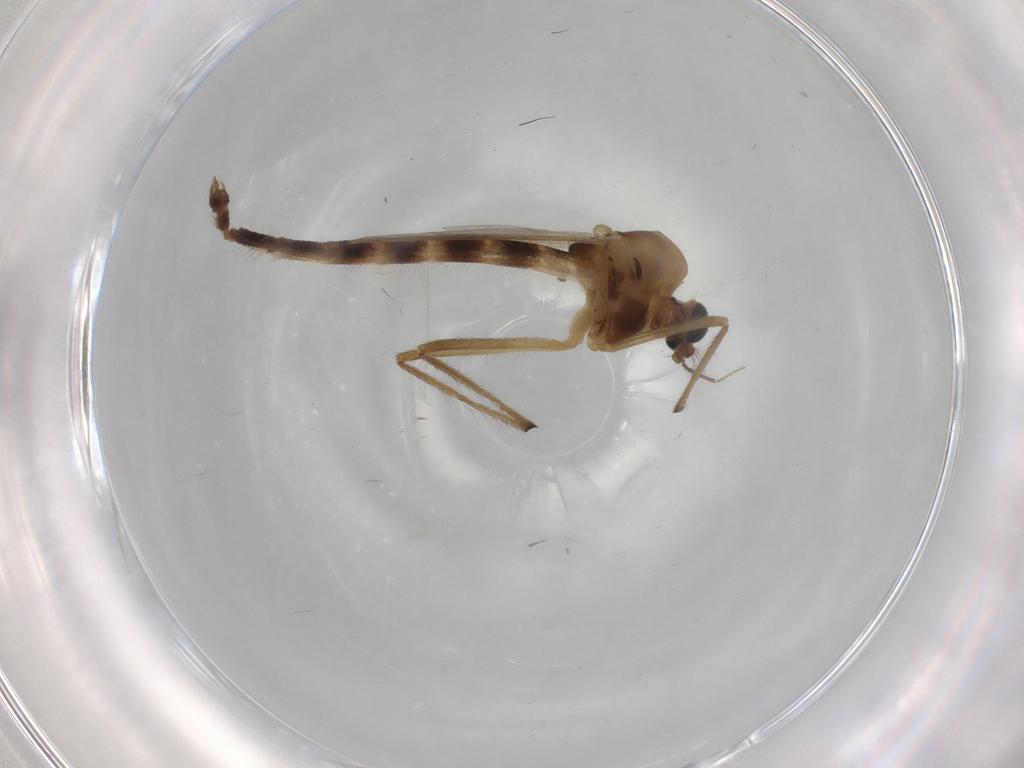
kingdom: Animalia
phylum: Arthropoda
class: Insecta
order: Diptera
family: Chironomidae
